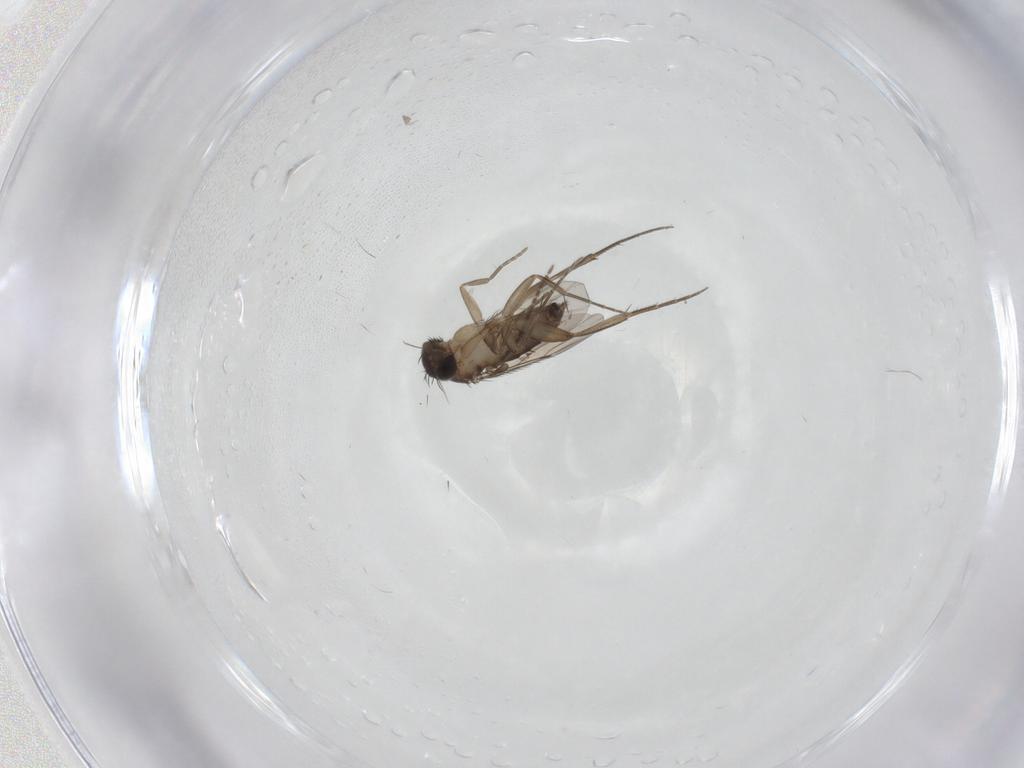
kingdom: Animalia
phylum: Arthropoda
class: Insecta
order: Diptera
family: Phoridae
